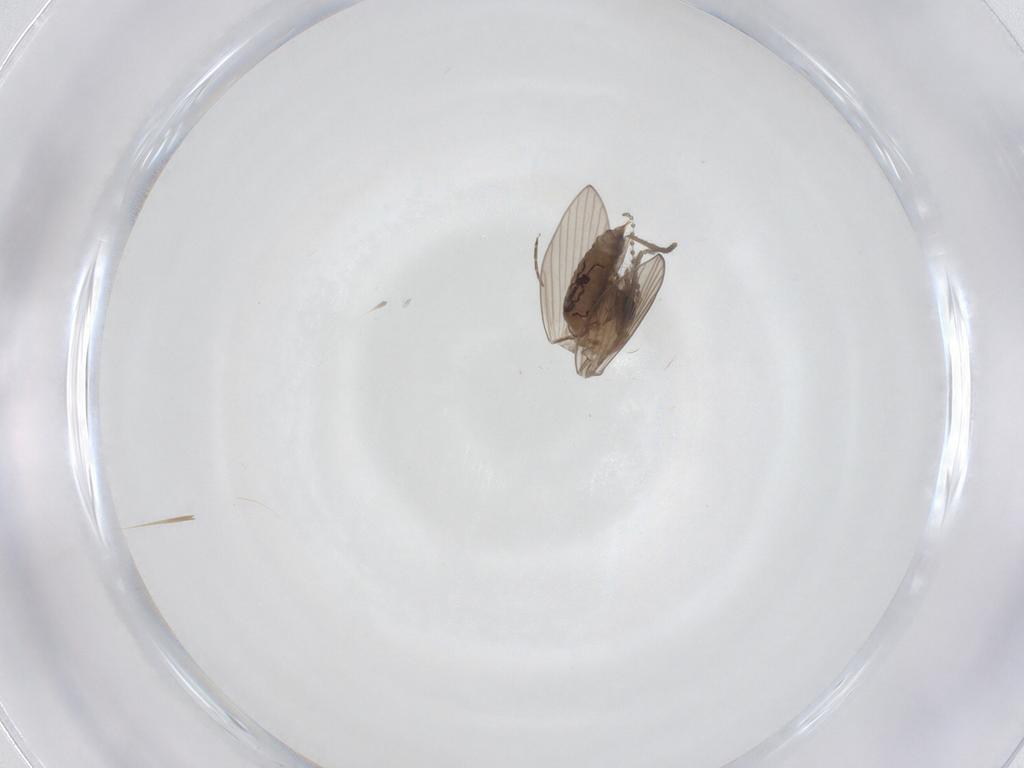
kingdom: Animalia
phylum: Arthropoda
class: Insecta
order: Diptera
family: Psychodidae
